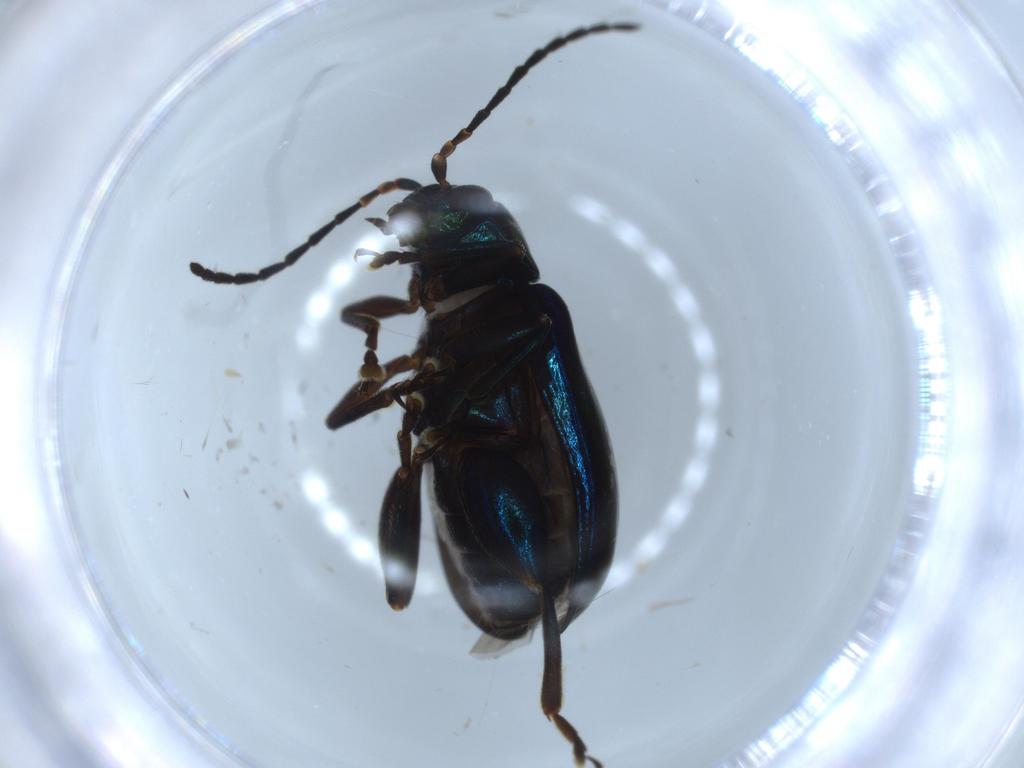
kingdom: Animalia
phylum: Arthropoda
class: Insecta
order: Coleoptera
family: Chrysomelidae
